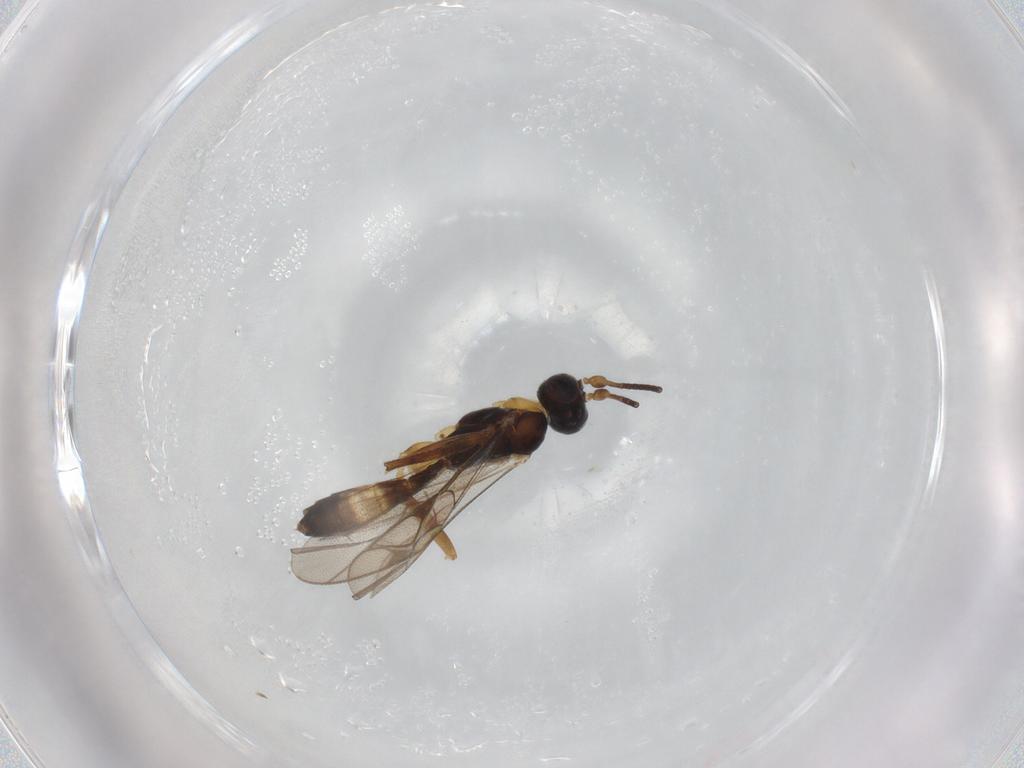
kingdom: Animalia
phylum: Arthropoda
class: Insecta
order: Hymenoptera
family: Ichneumonidae
